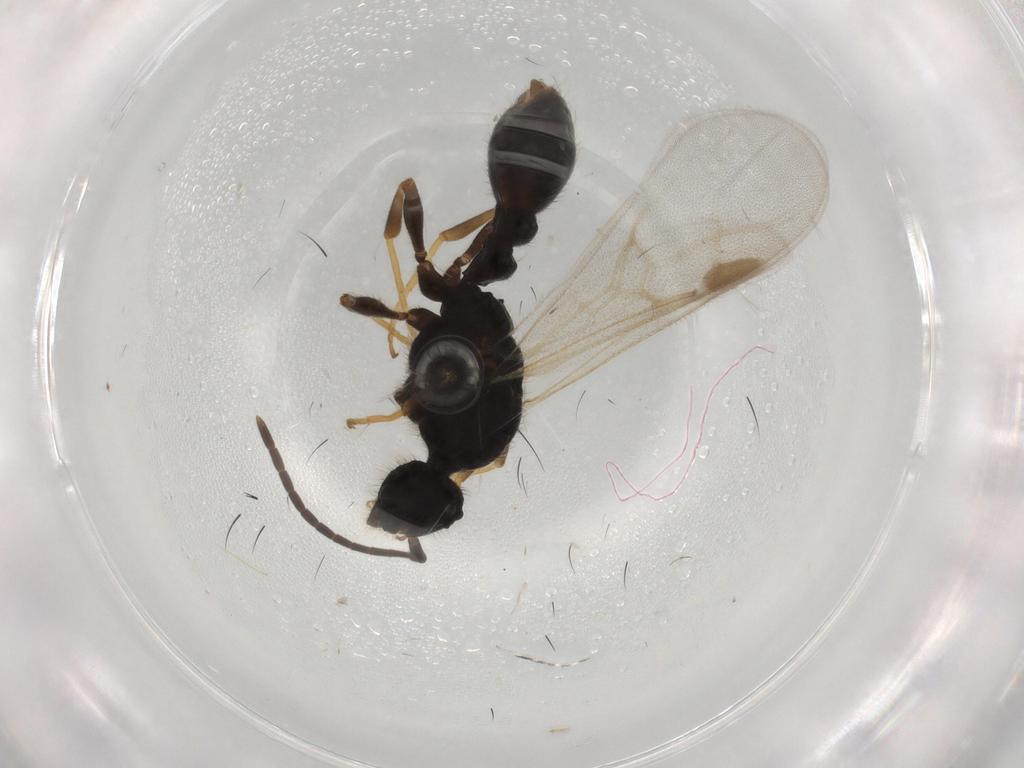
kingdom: Animalia
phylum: Arthropoda
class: Insecta
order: Hymenoptera
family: Formicidae
